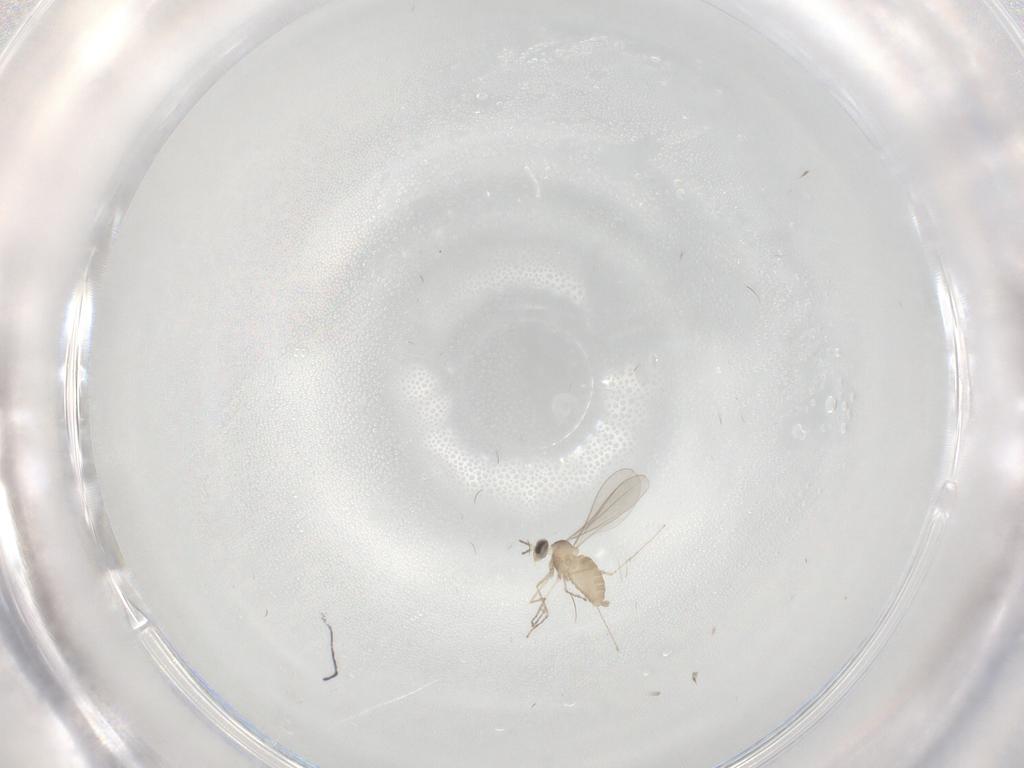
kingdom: Animalia
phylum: Arthropoda
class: Insecta
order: Diptera
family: Cecidomyiidae
